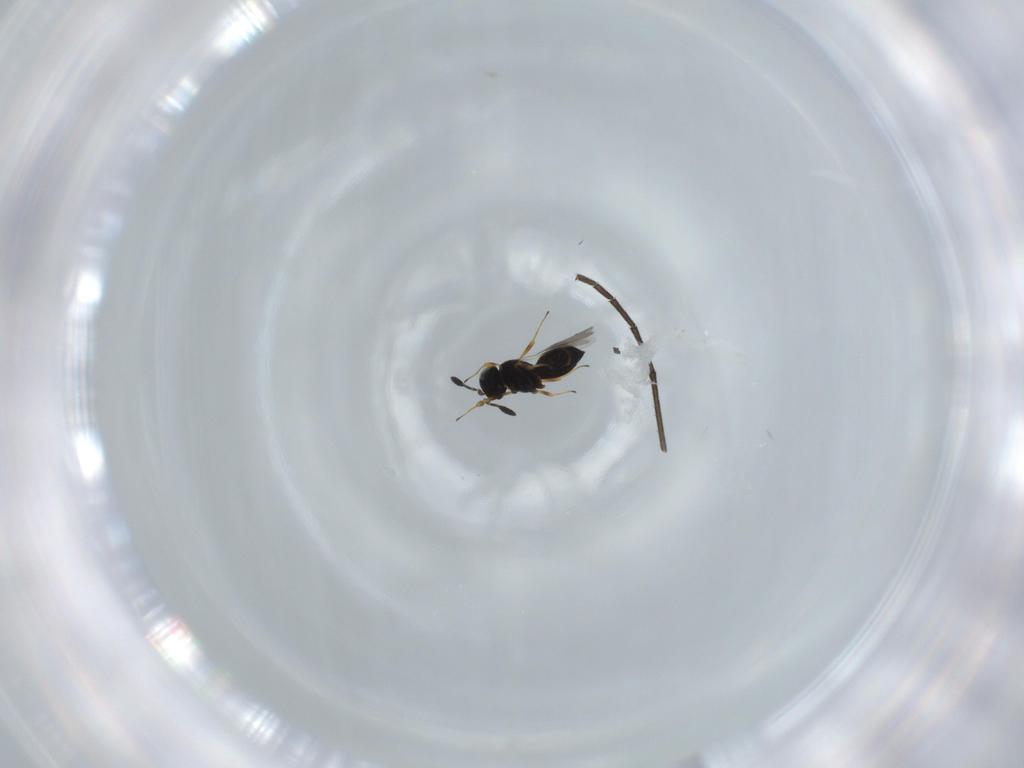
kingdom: Animalia
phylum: Arthropoda
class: Insecta
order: Hymenoptera
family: Scelionidae
